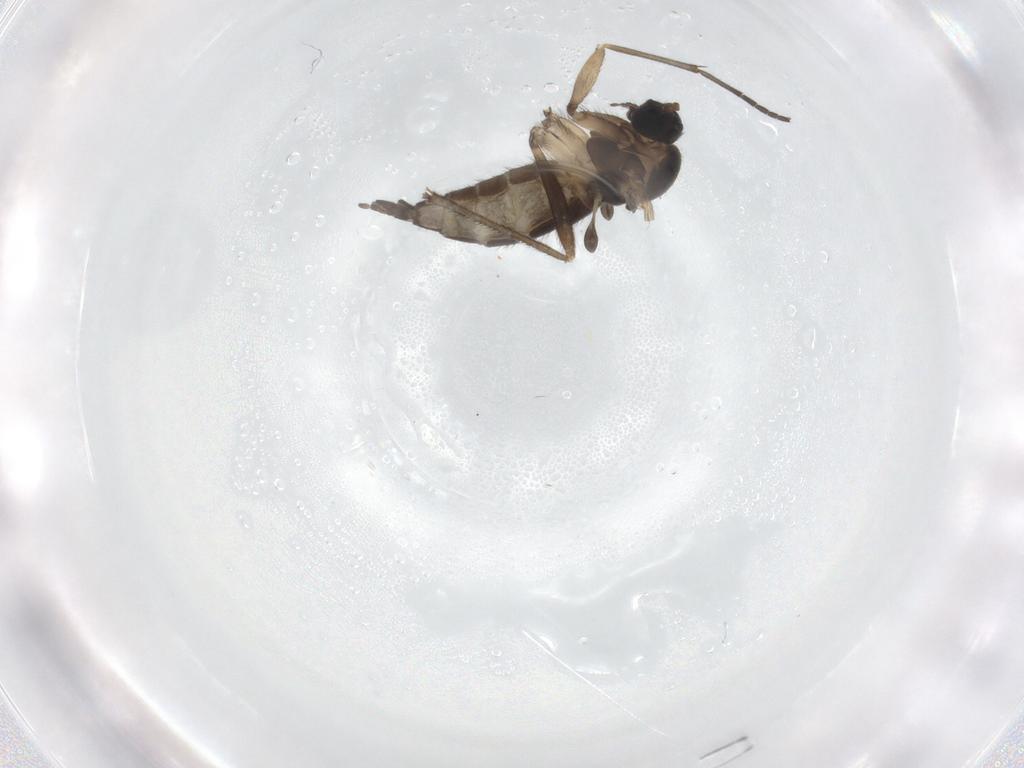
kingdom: Animalia
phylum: Arthropoda
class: Insecta
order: Diptera
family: Sciaridae
